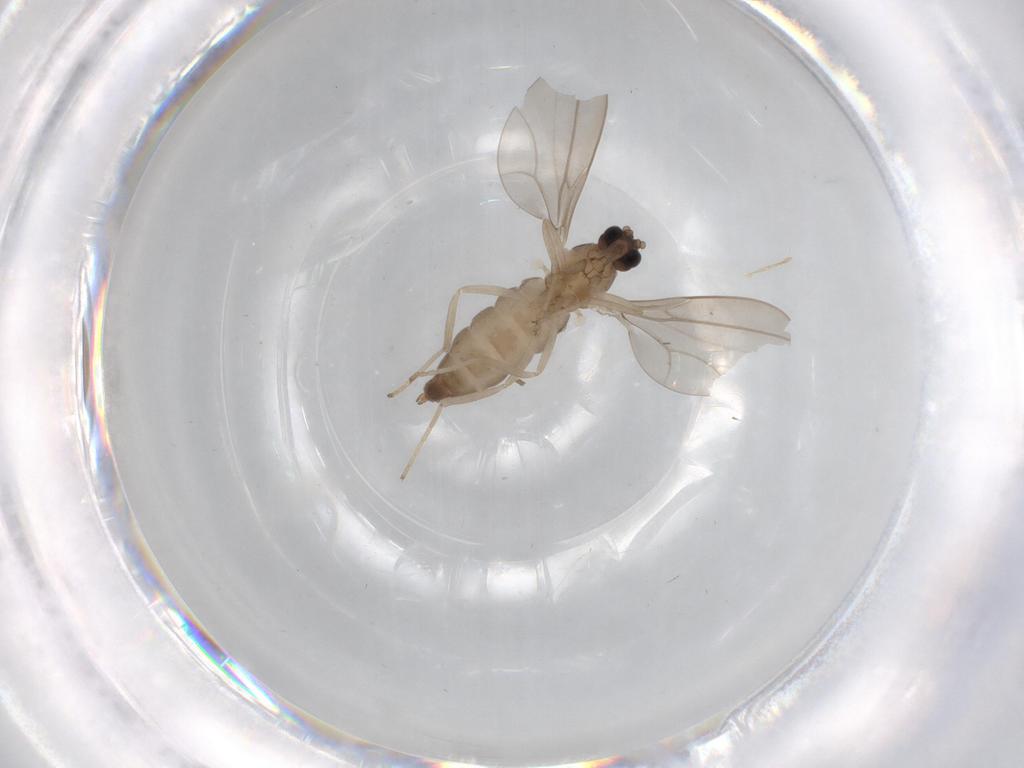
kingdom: Animalia
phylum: Arthropoda
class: Insecta
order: Diptera
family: Cecidomyiidae
